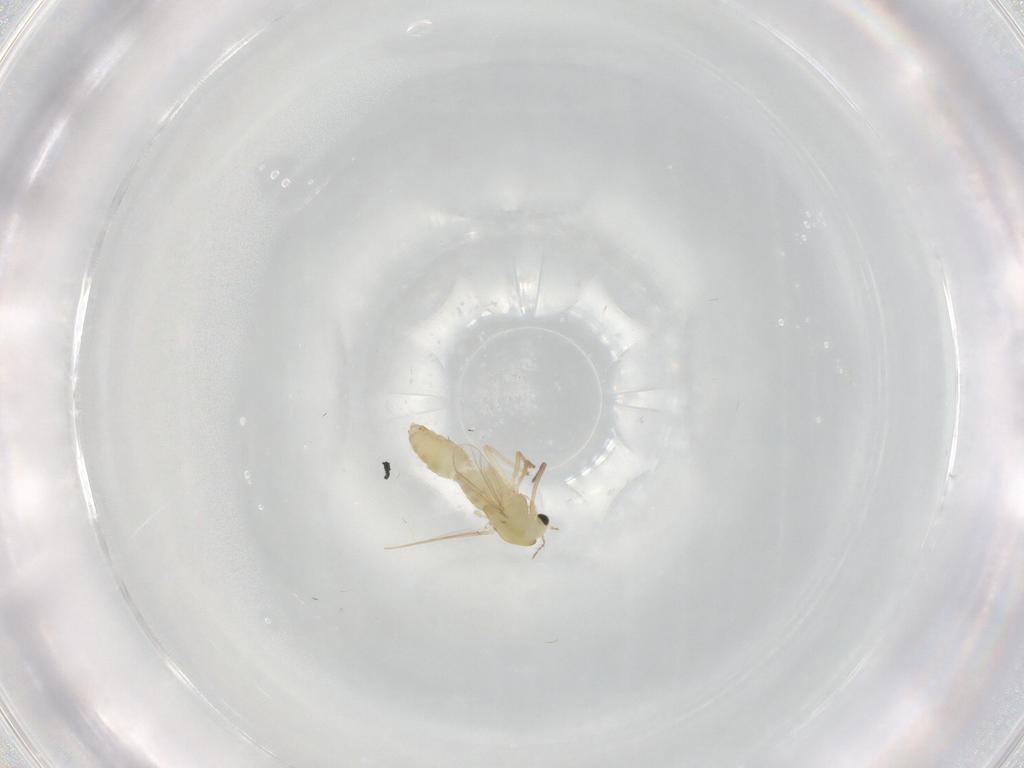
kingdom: Animalia
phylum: Arthropoda
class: Insecta
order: Diptera
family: Chironomidae
